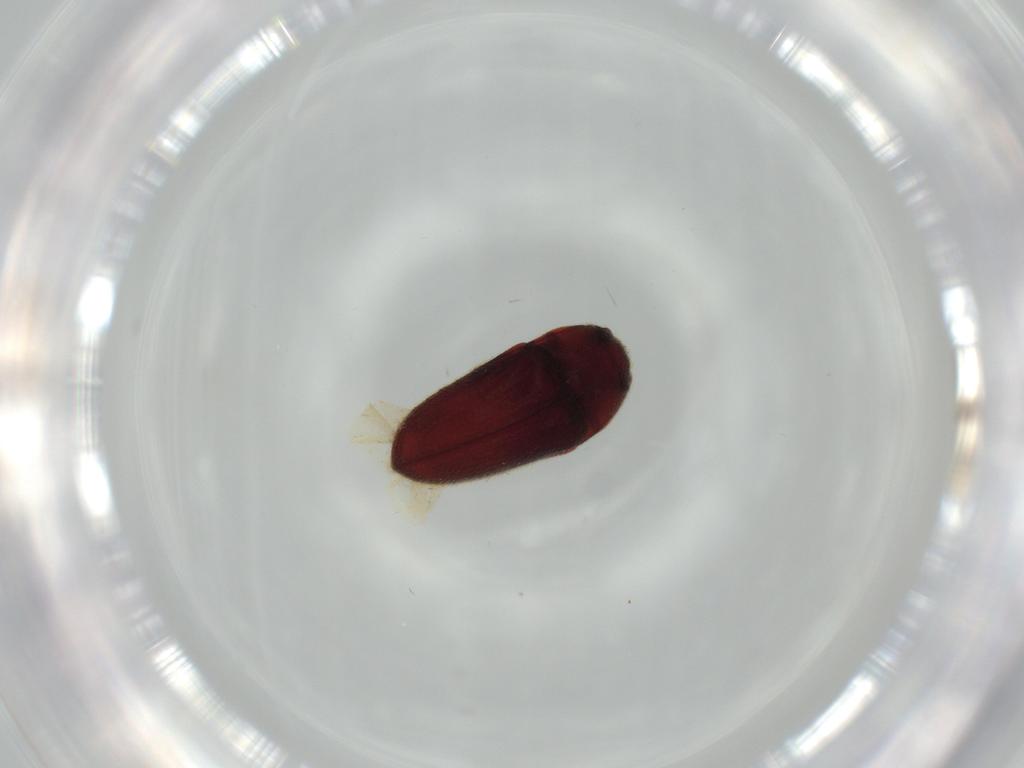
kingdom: Animalia
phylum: Arthropoda
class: Insecta
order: Coleoptera
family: Throscidae
